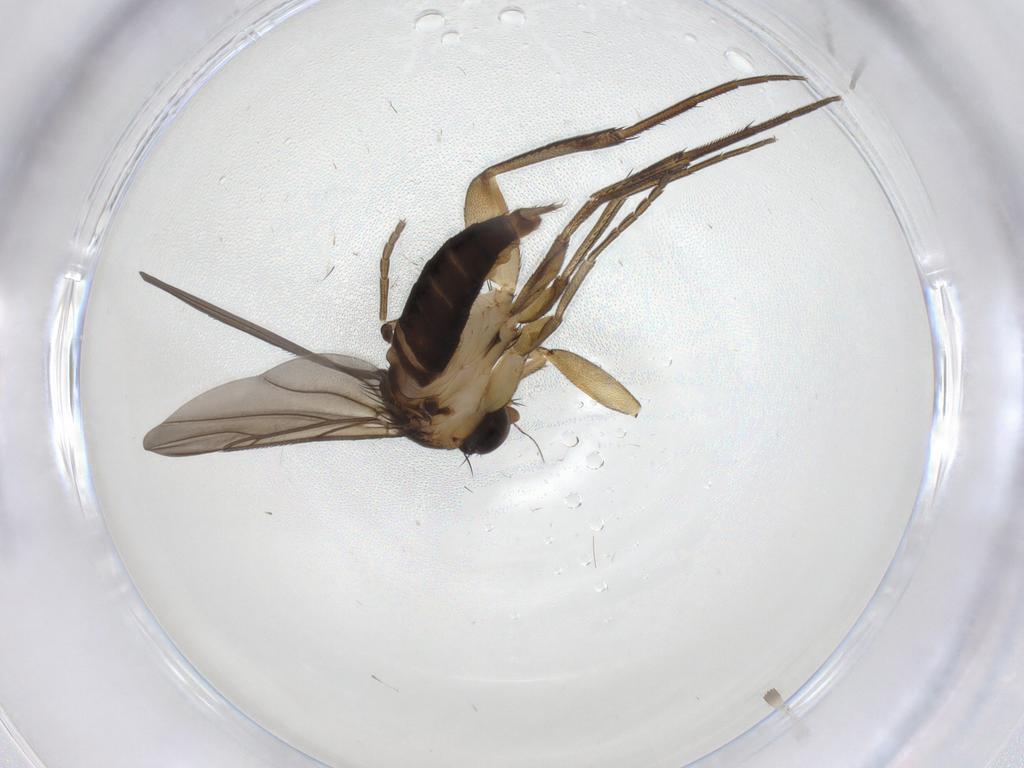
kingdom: Animalia
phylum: Arthropoda
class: Insecta
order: Diptera
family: Phoridae
